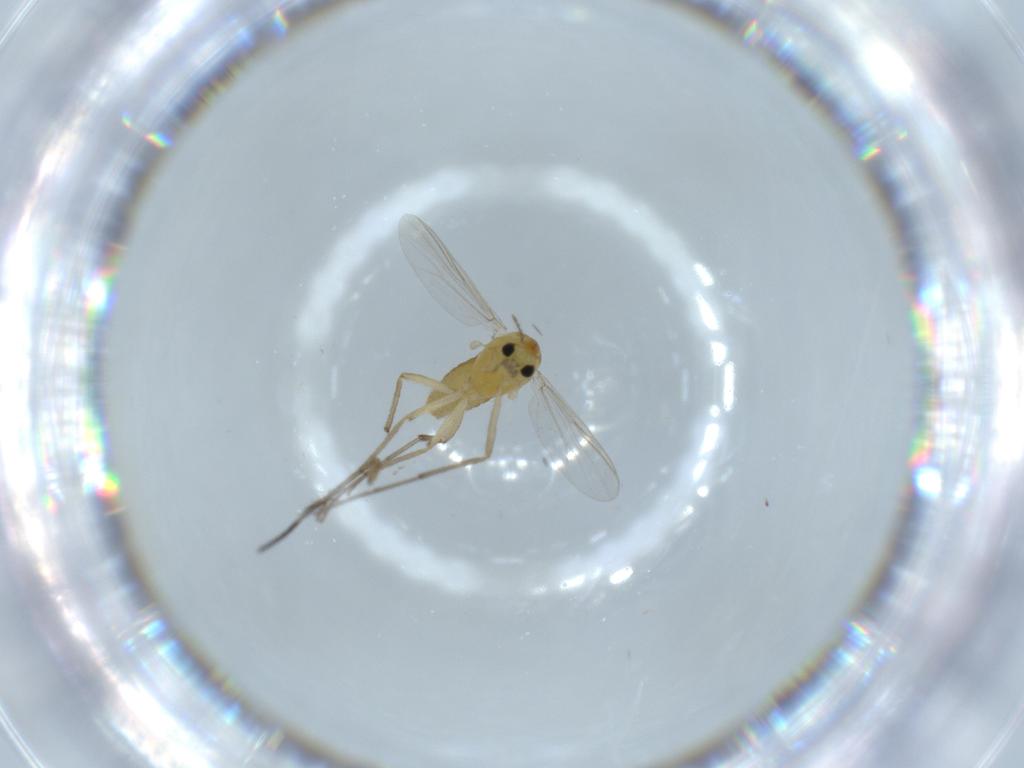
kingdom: Animalia
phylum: Arthropoda
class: Insecta
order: Diptera
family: Chironomidae
